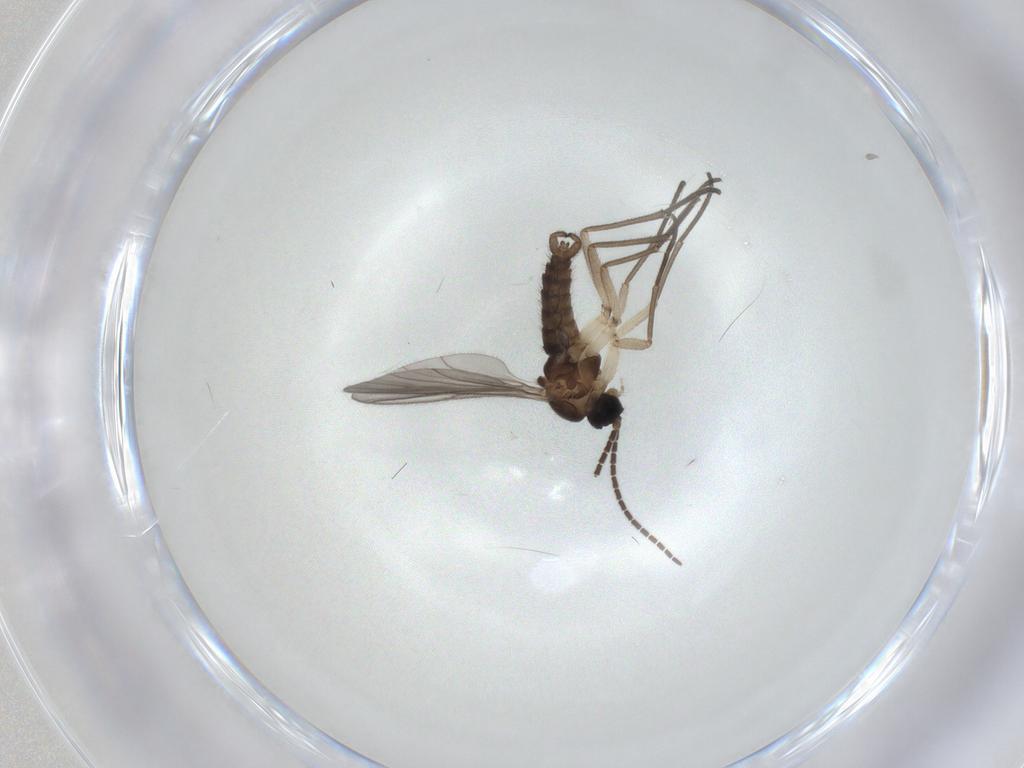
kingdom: Animalia
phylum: Arthropoda
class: Insecta
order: Diptera
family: Sciaridae
